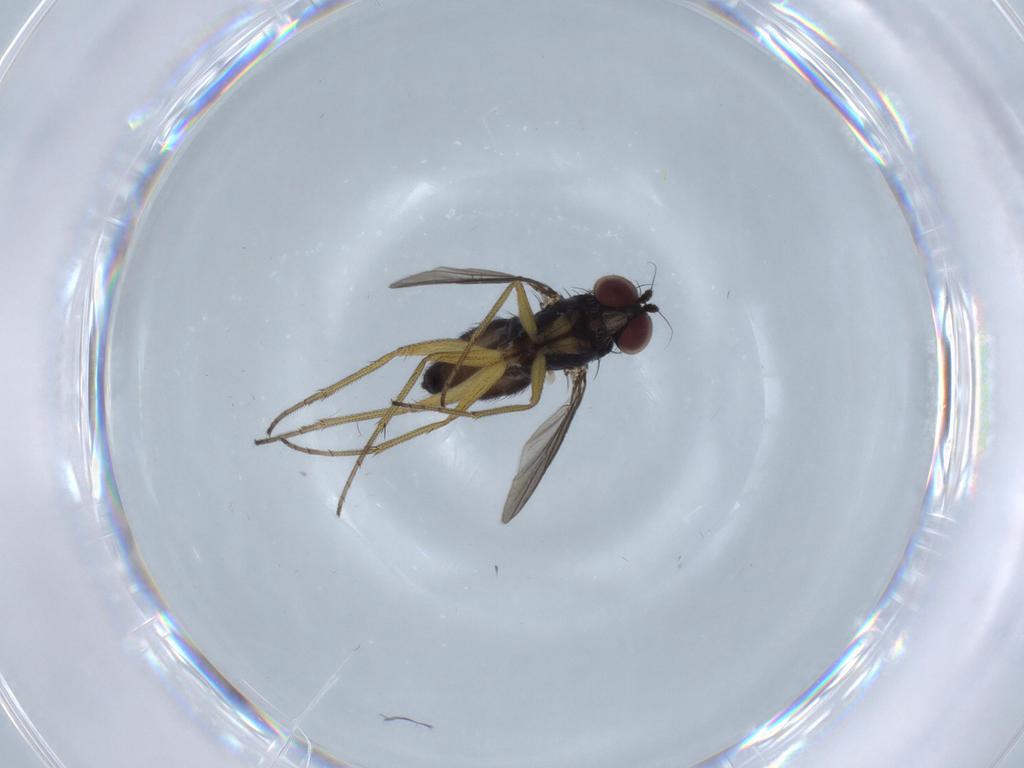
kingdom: Animalia
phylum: Arthropoda
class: Insecta
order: Diptera
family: Dolichopodidae
